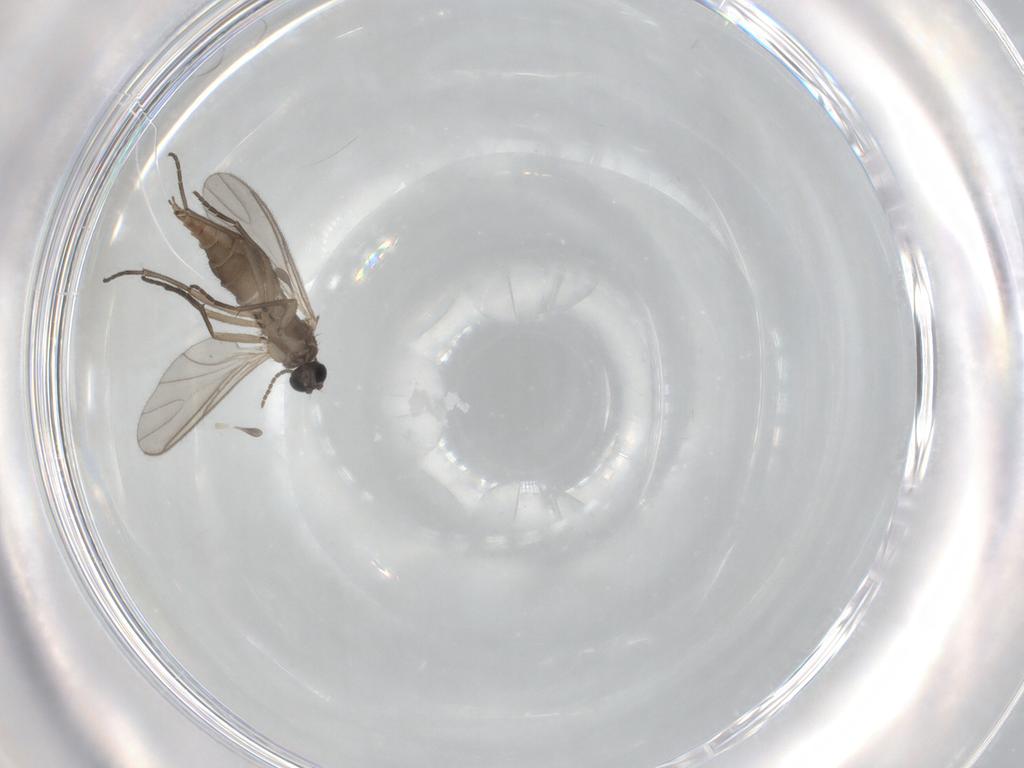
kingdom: Animalia
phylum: Arthropoda
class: Insecta
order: Diptera
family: Sciaridae
